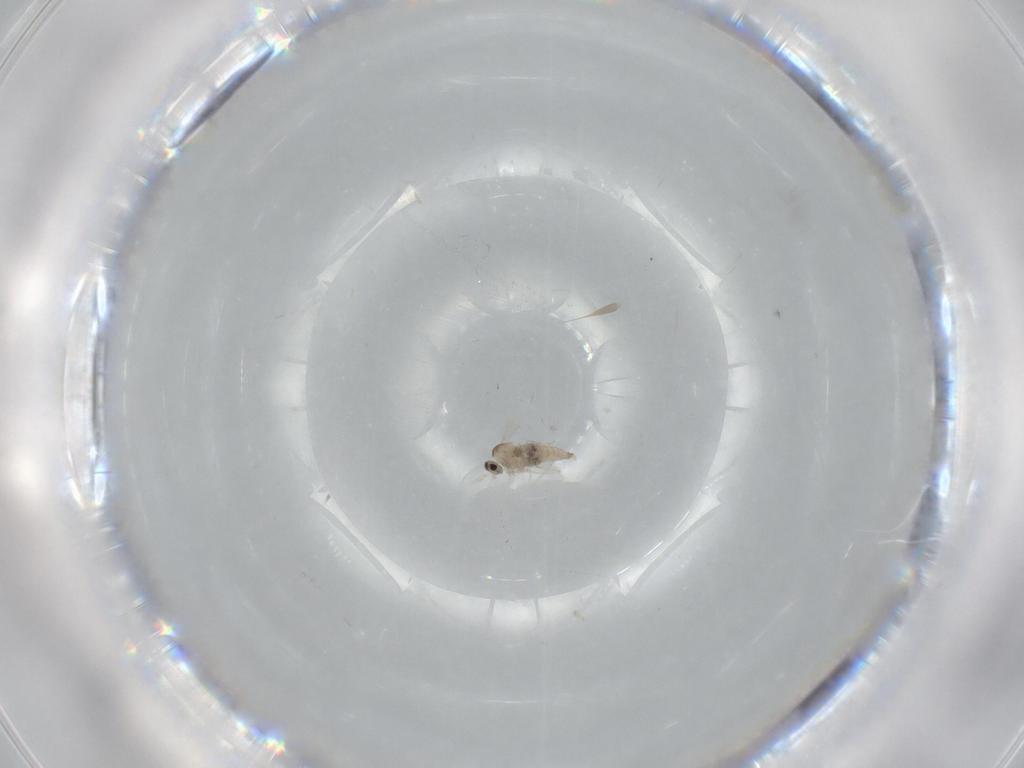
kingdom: Animalia
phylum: Arthropoda
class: Insecta
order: Diptera
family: Cecidomyiidae
